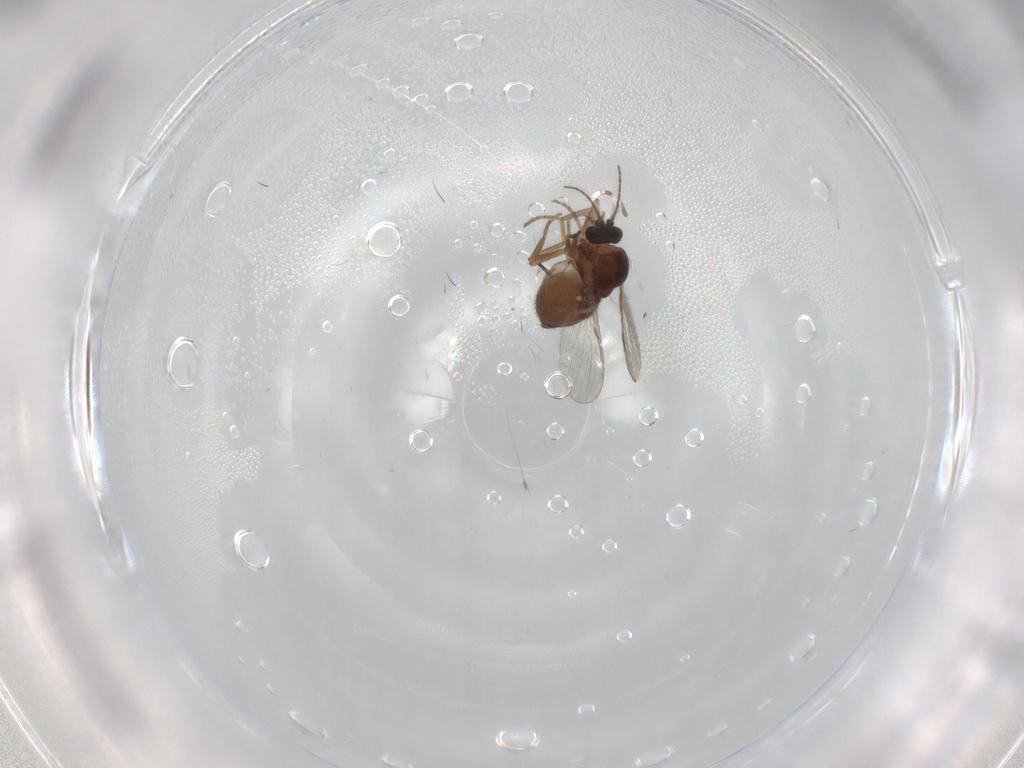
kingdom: Animalia
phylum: Arthropoda
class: Insecta
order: Diptera
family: Ceratopogonidae
